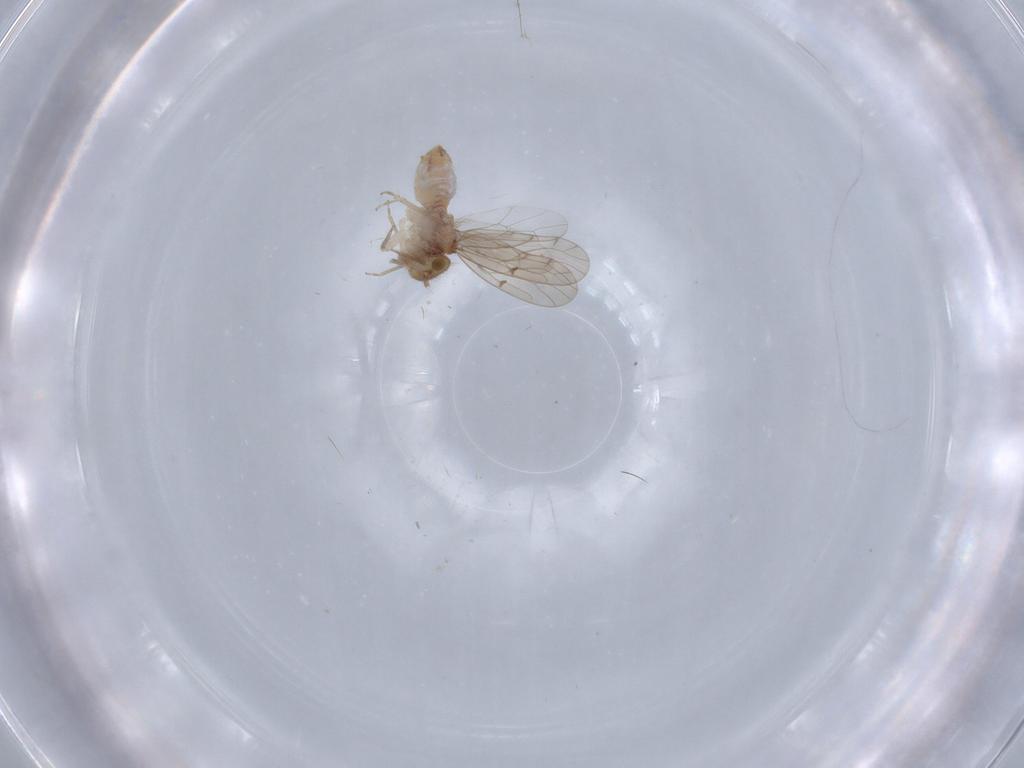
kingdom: Animalia
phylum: Arthropoda
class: Insecta
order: Psocodea
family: Ectopsocidae
